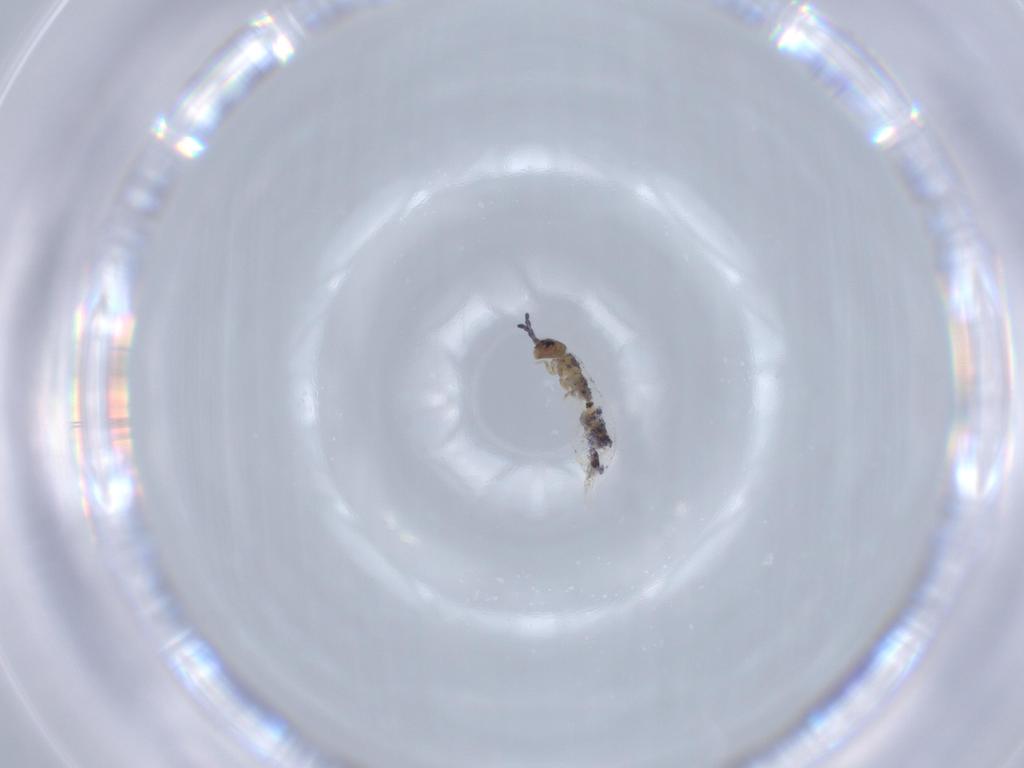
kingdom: Animalia
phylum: Arthropoda
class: Collembola
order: Entomobryomorpha
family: Isotomidae
